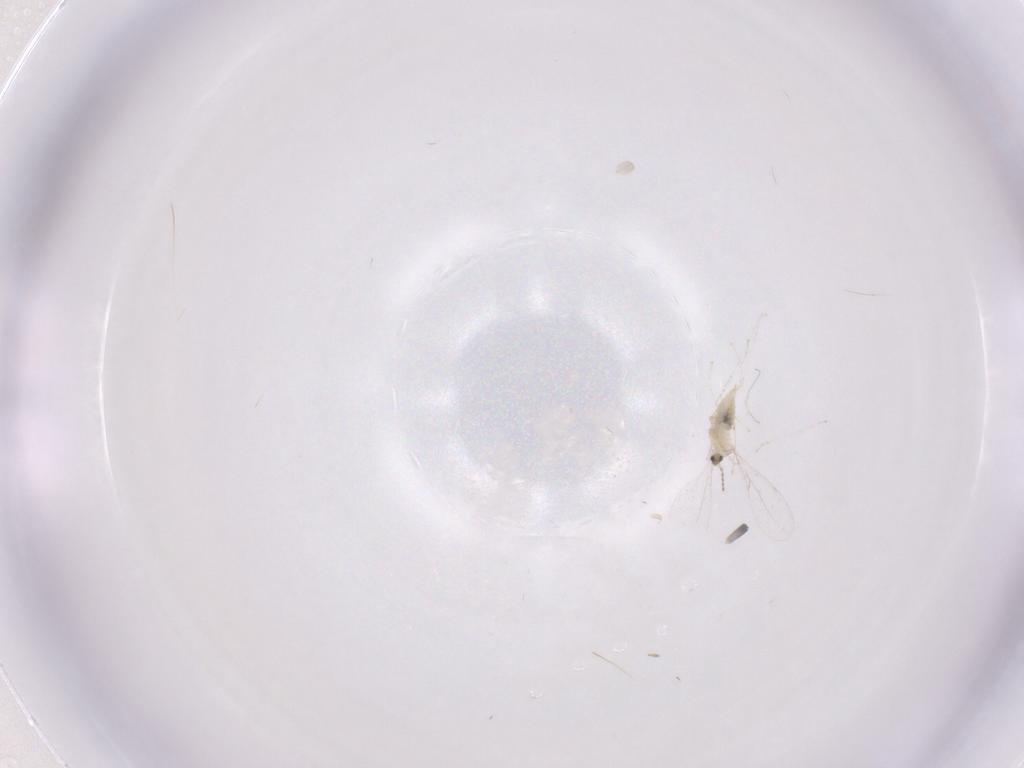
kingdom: Animalia
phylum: Arthropoda
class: Insecta
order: Diptera
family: Cecidomyiidae
